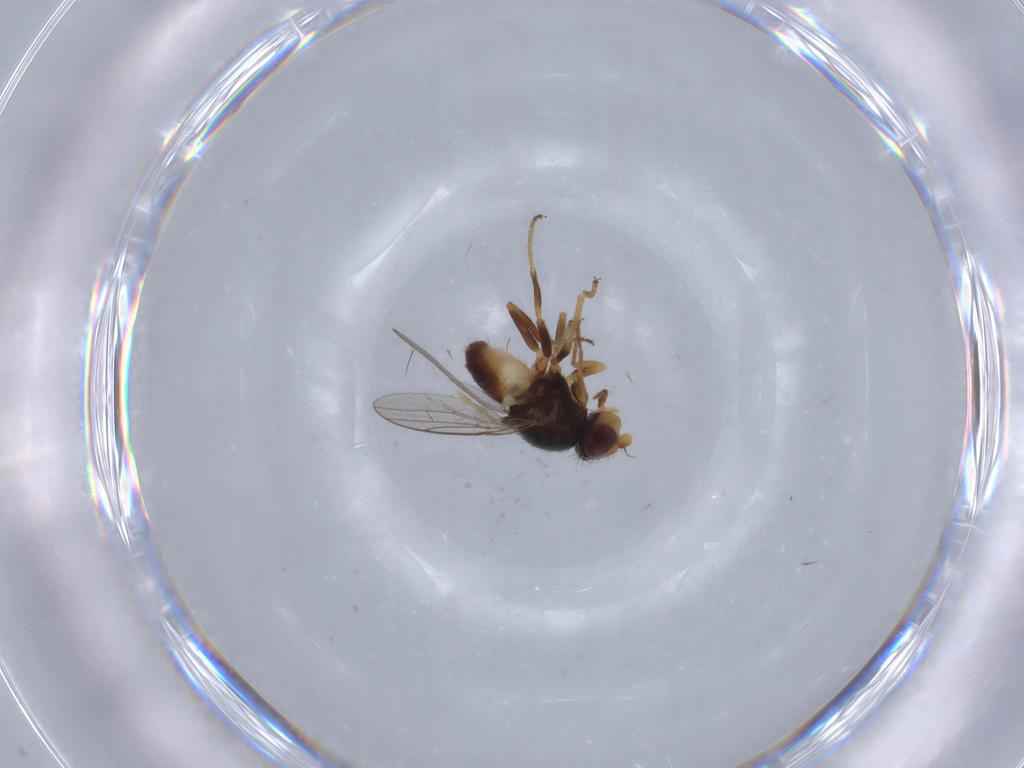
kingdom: Animalia
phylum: Arthropoda
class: Insecta
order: Diptera
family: Chloropidae
